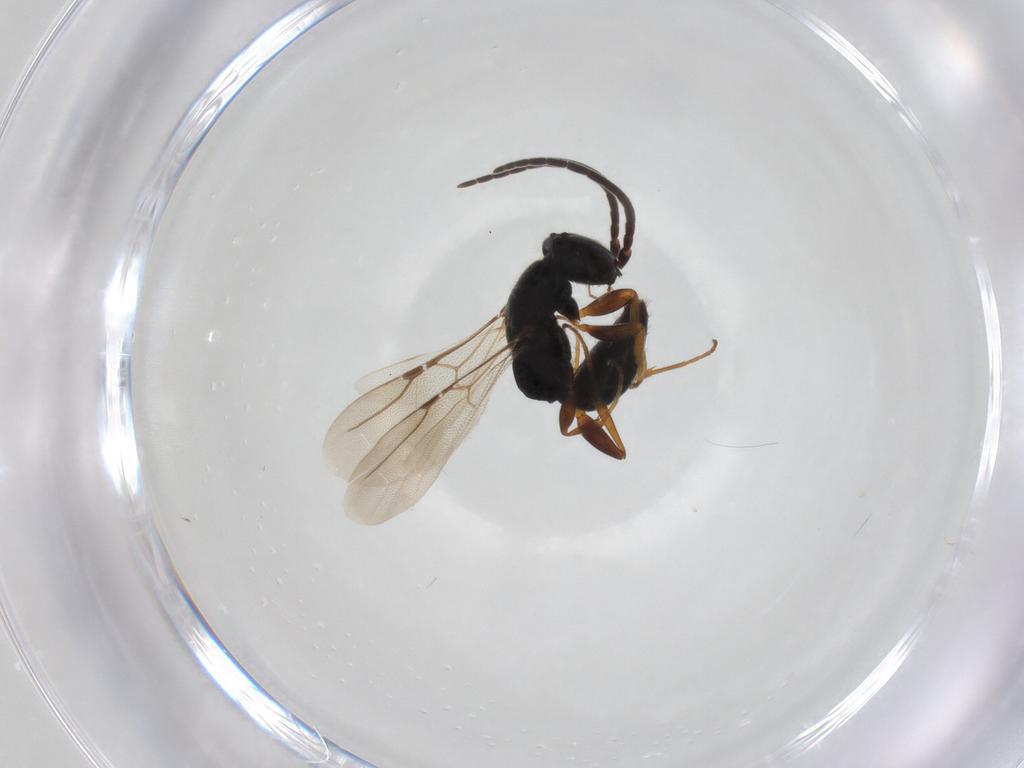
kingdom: Animalia
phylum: Arthropoda
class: Insecta
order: Hymenoptera
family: Bethylidae
